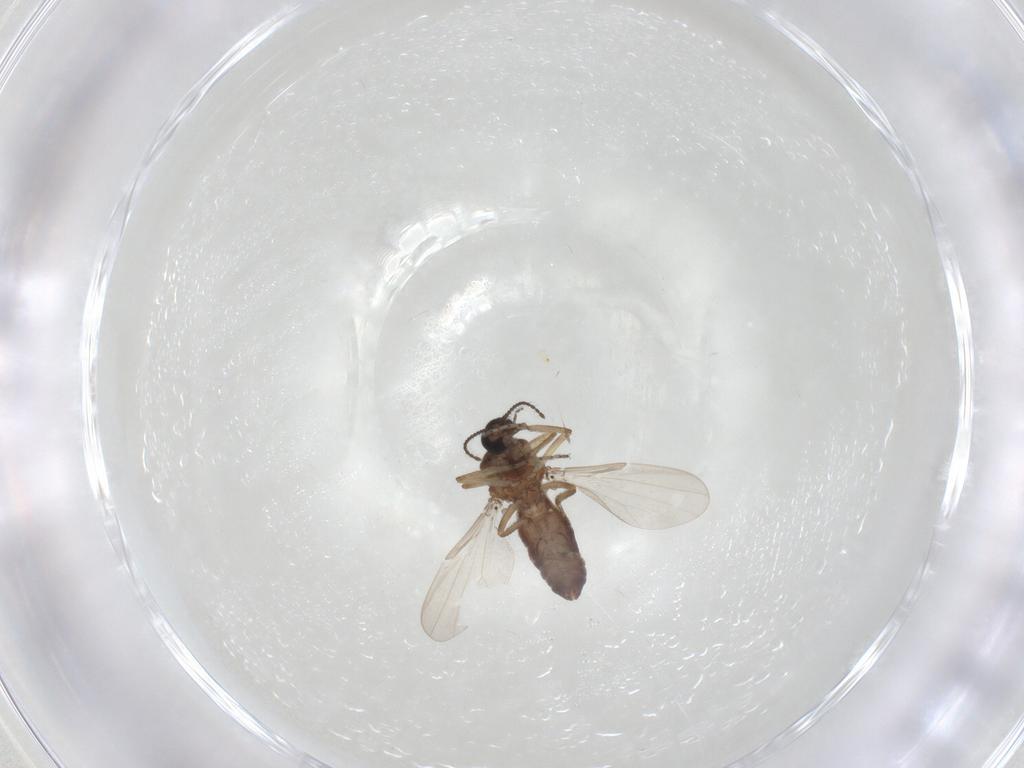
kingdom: Animalia
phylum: Arthropoda
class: Insecta
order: Diptera
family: Ceratopogonidae
